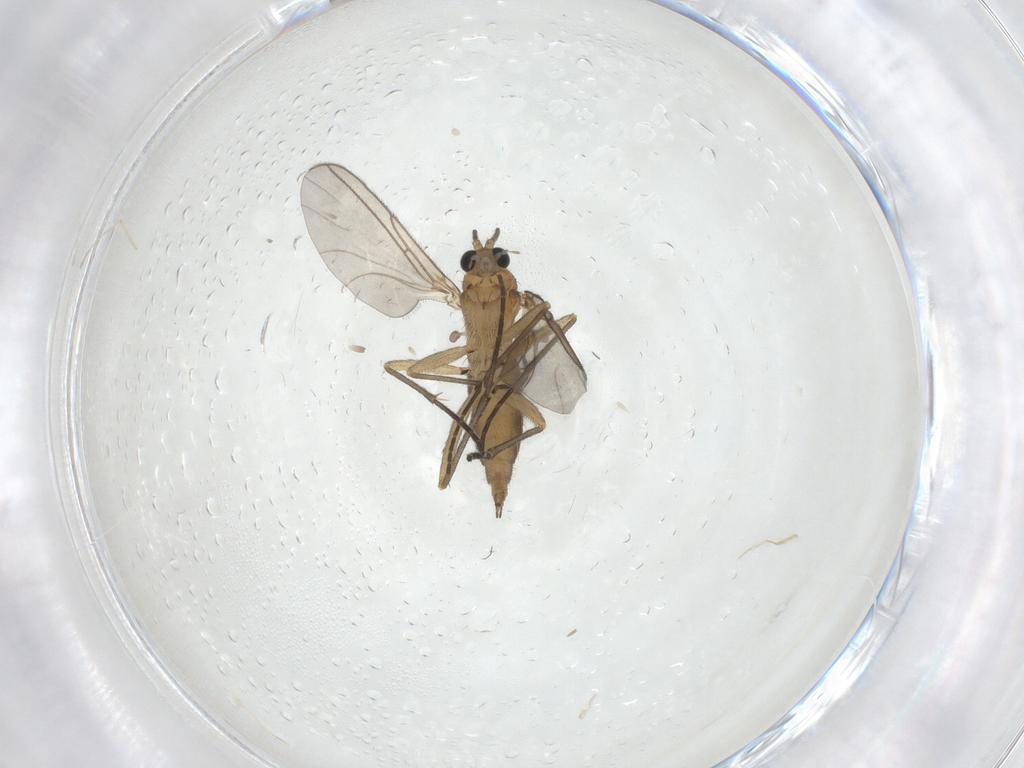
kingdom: Animalia
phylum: Arthropoda
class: Insecta
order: Diptera
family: Sciaridae
